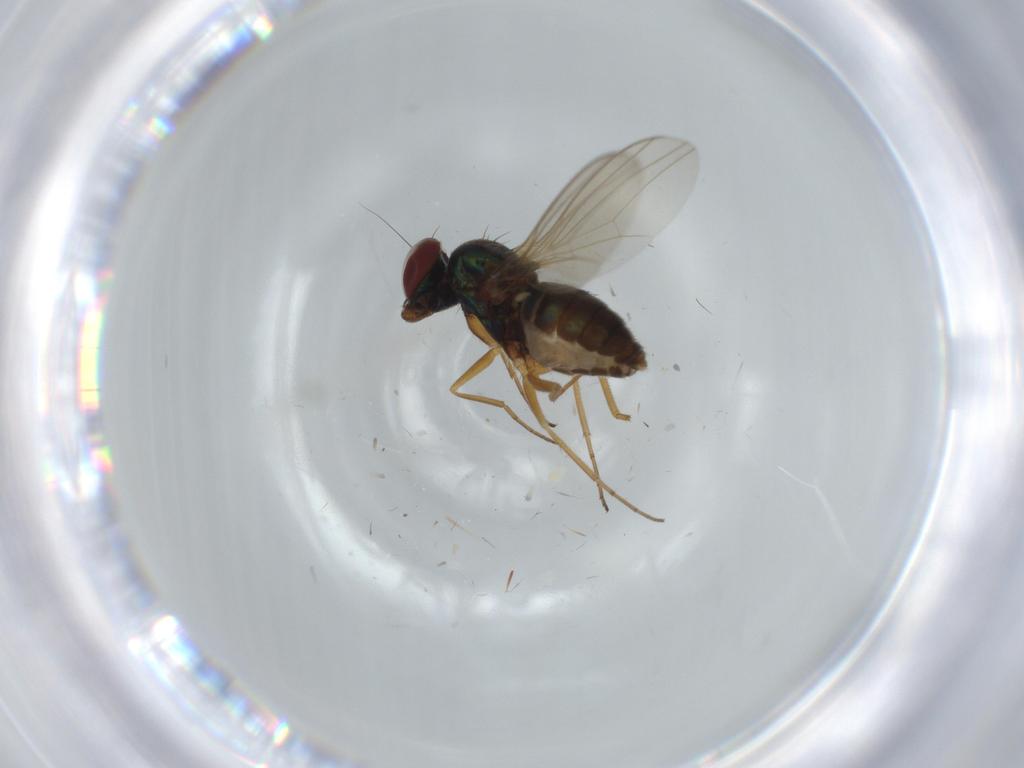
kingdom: Animalia
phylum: Arthropoda
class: Insecta
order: Diptera
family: Dolichopodidae
